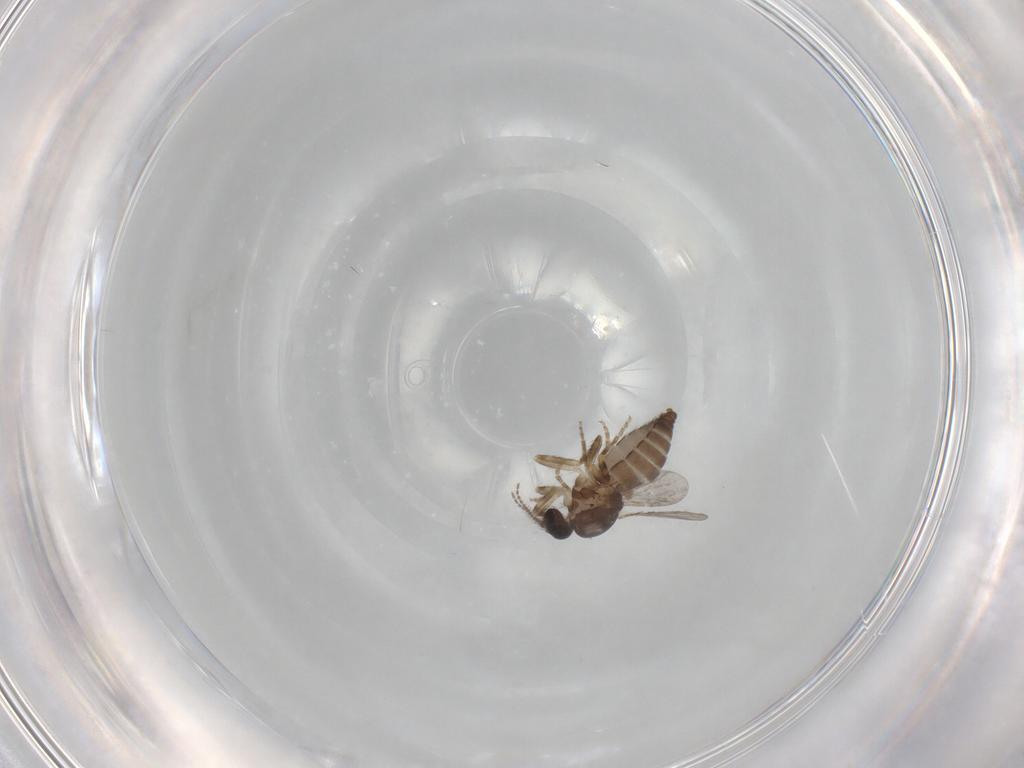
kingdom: Animalia
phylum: Arthropoda
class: Insecta
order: Diptera
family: Ceratopogonidae
